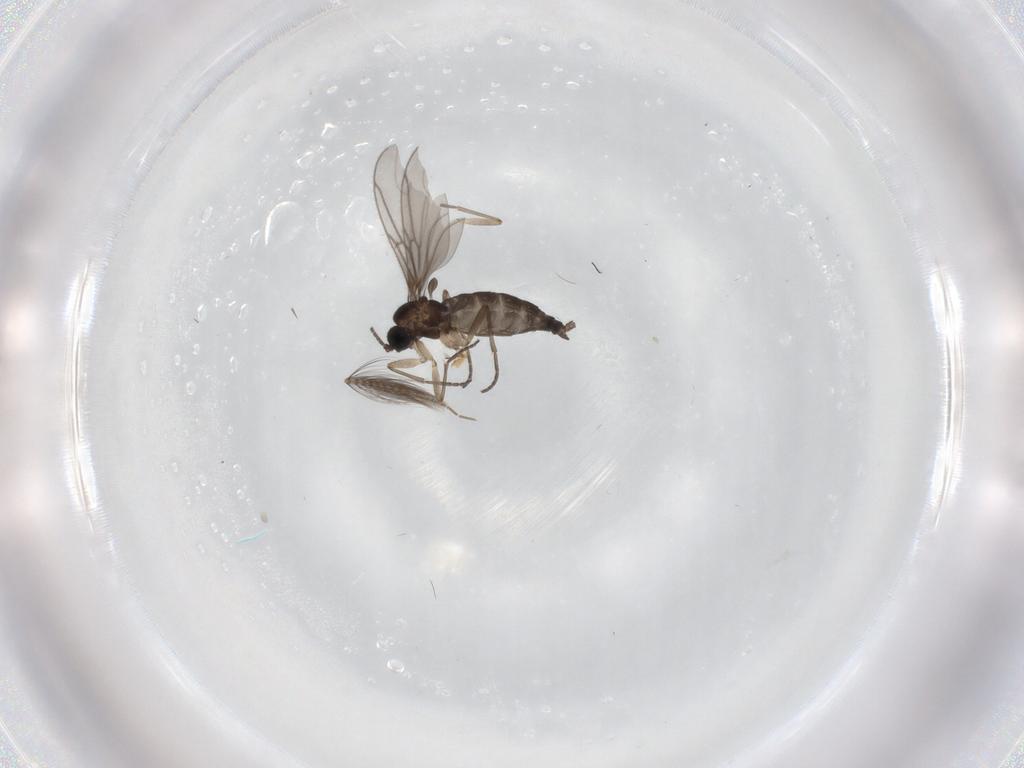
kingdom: Animalia
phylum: Arthropoda
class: Insecta
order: Diptera
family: Sciaridae
